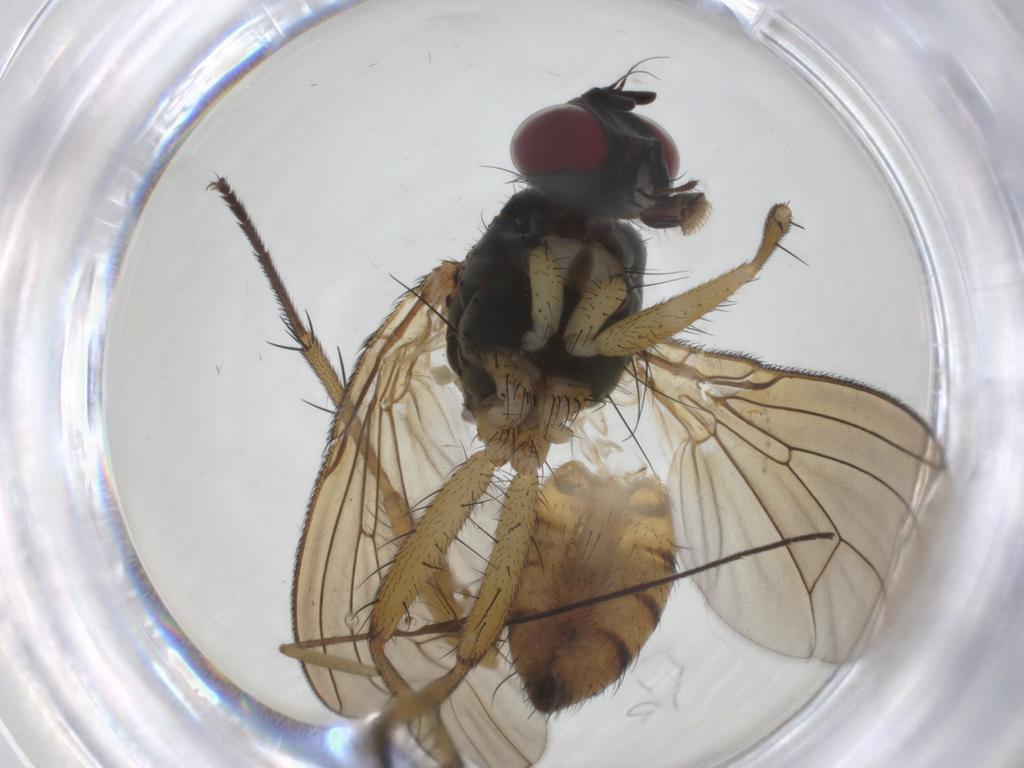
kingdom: Animalia
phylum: Arthropoda
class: Insecta
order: Diptera
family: Muscidae
